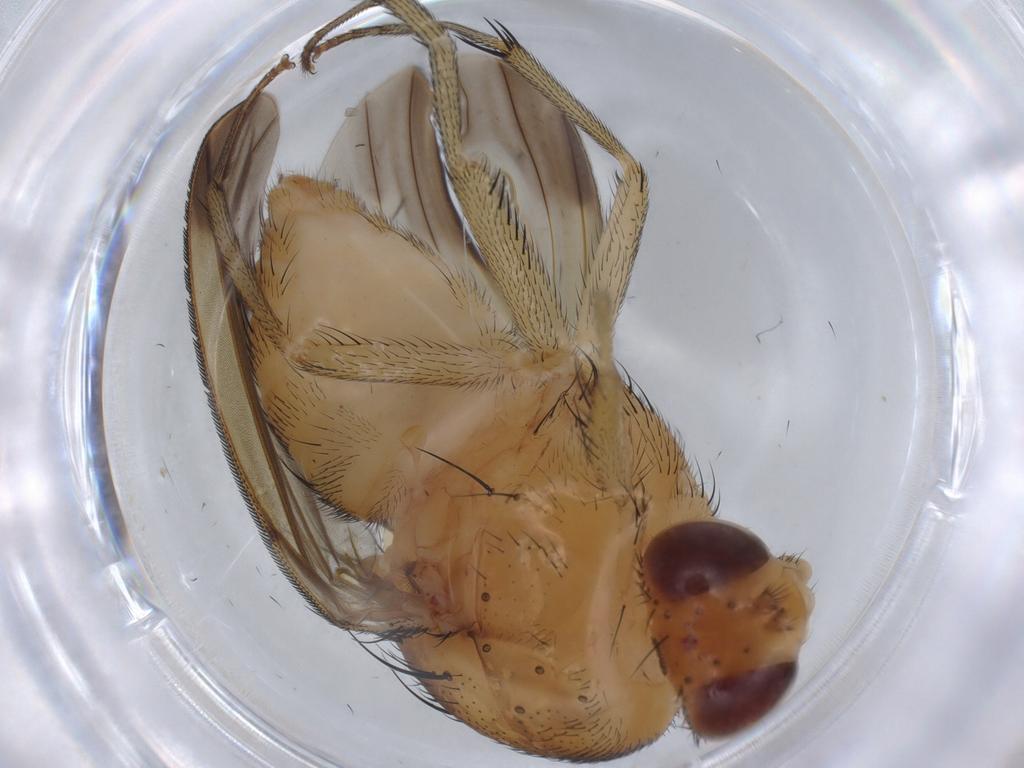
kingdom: Animalia
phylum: Arthropoda
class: Insecta
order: Diptera
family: Lauxaniidae
